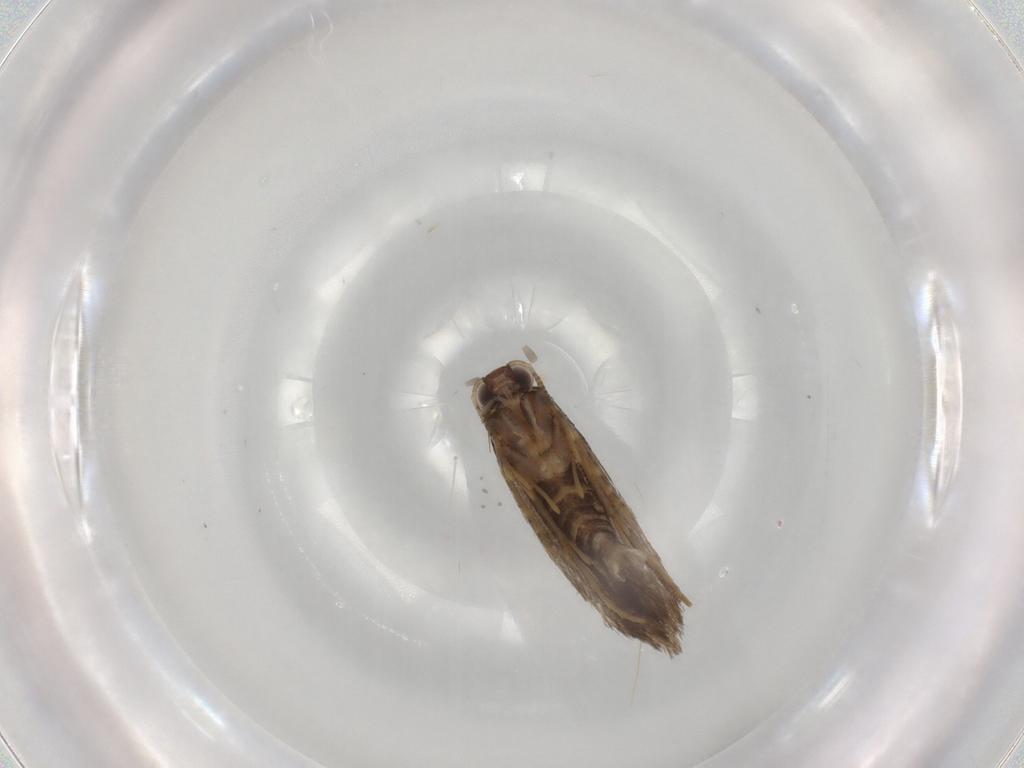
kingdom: Animalia
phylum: Arthropoda
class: Insecta
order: Lepidoptera
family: Tineidae
